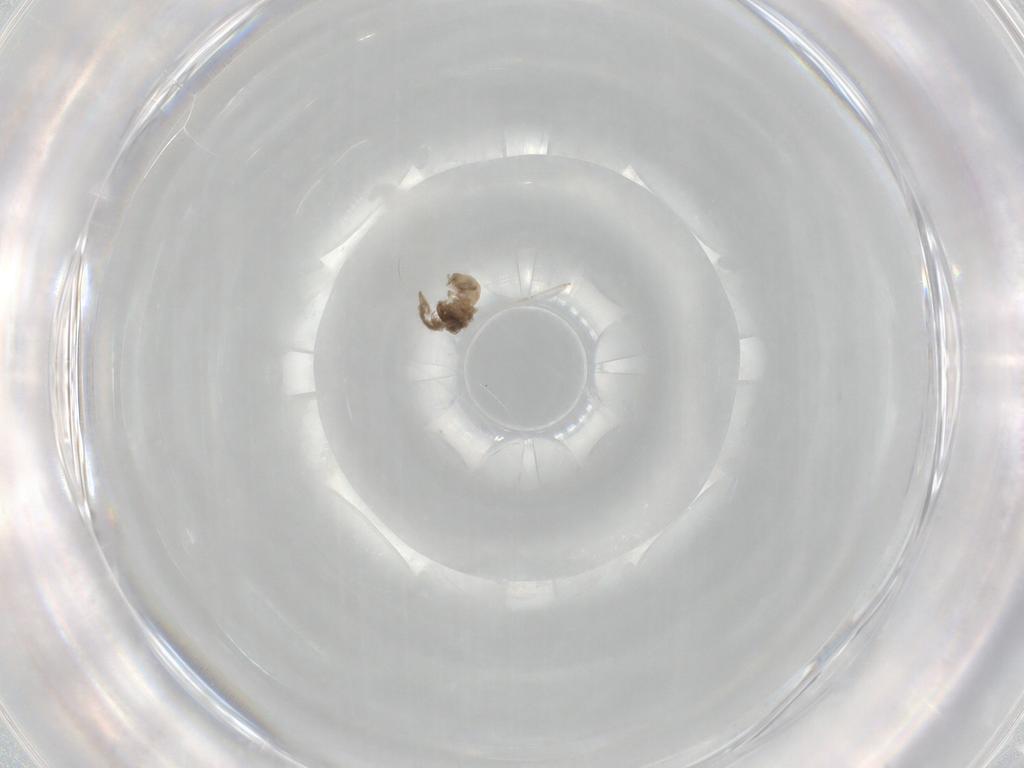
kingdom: Animalia
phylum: Arthropoda
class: Insecta
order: Diptera
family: Cecidomyiidae
